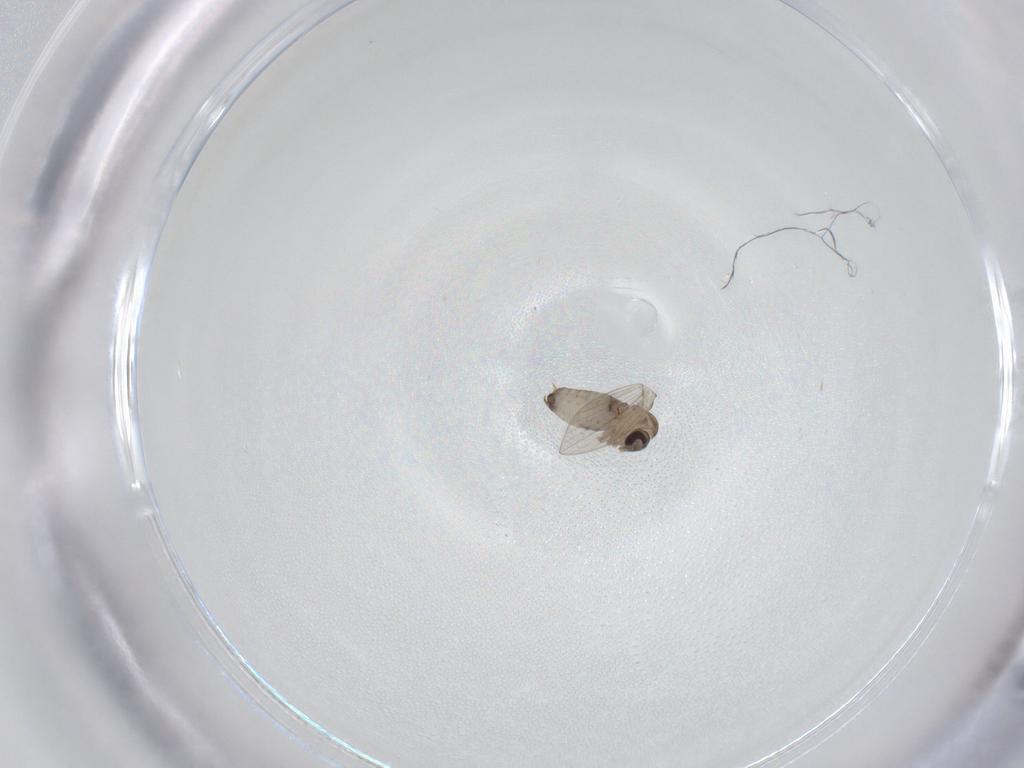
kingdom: Animalia
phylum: Arthropoda
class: Insecta
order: Diptera
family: Psychodidae
